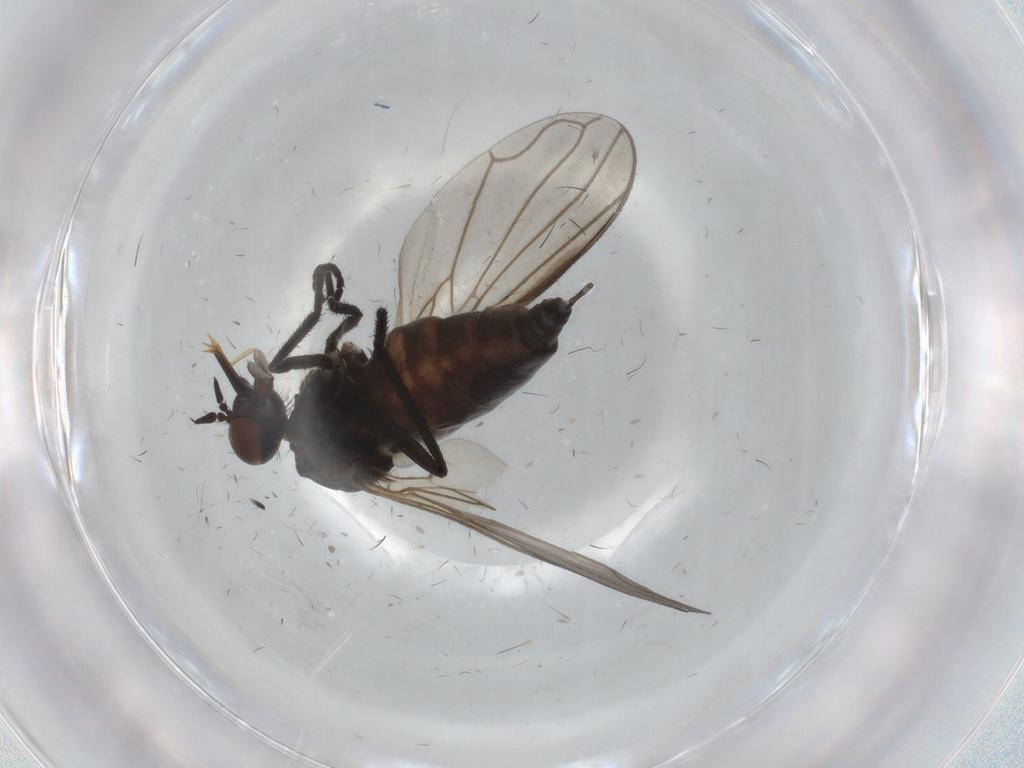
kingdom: Animalia
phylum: Arthropoda
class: Insecta
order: Diptera
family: Empididae
